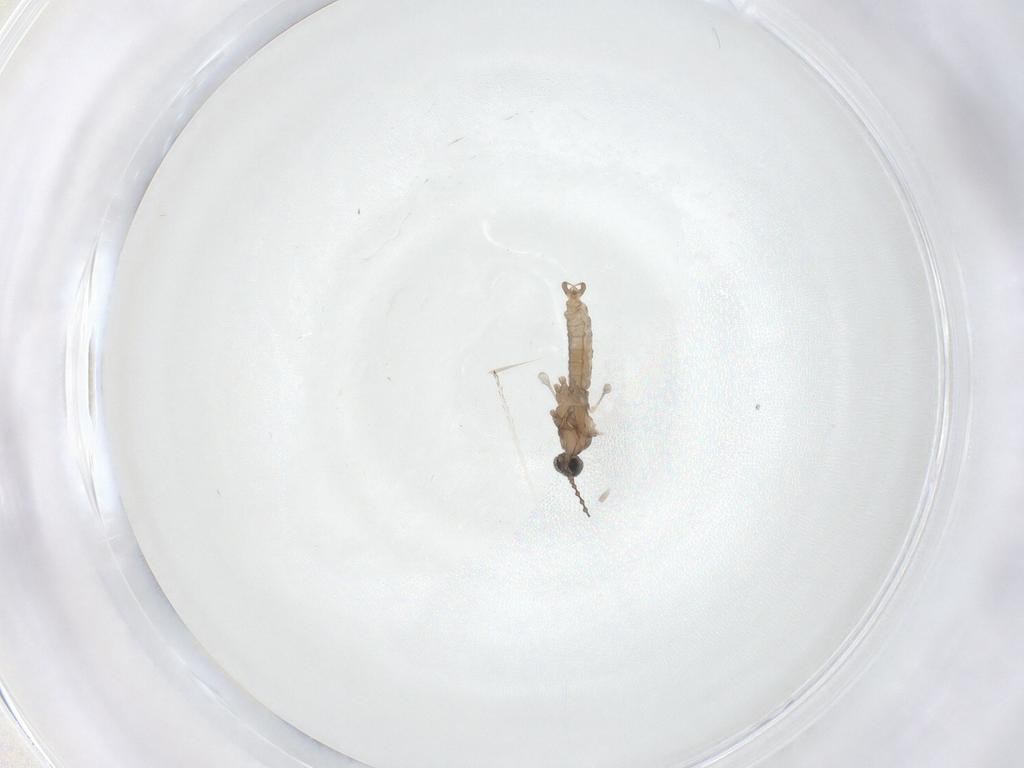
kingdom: Animalia
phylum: Arthropoda
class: Insecta
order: Diptera
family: Cecidomyiidae
